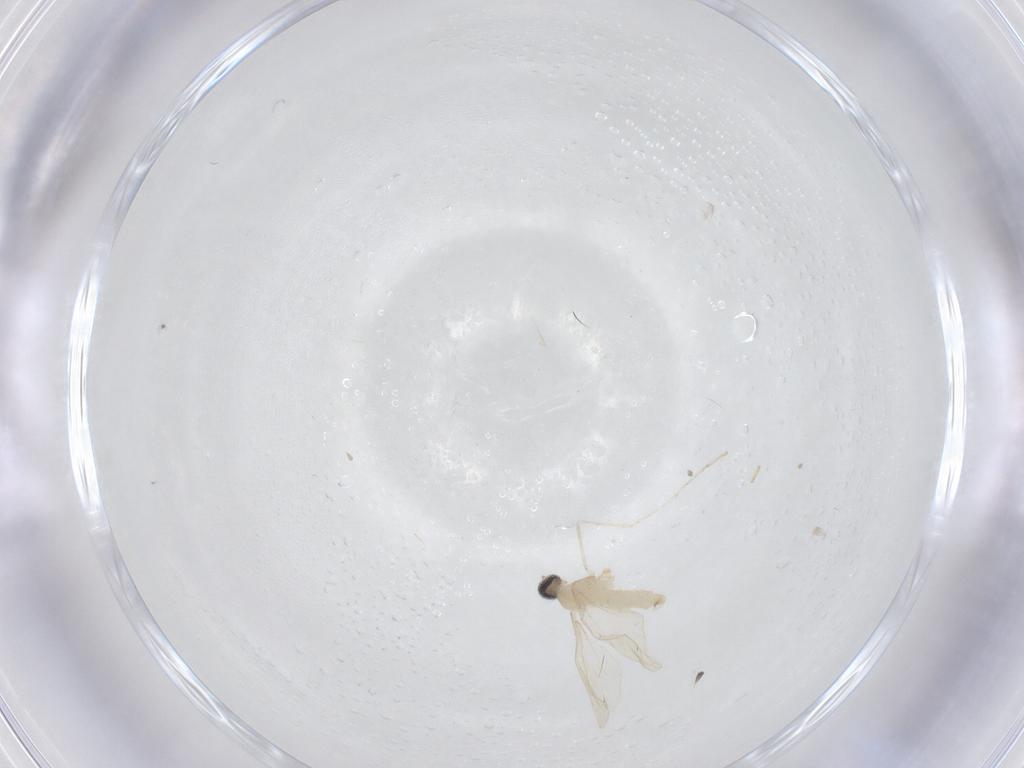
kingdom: Animalia
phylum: Arthropoda
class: Insecta
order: Diptera
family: Cecidomyiidae
